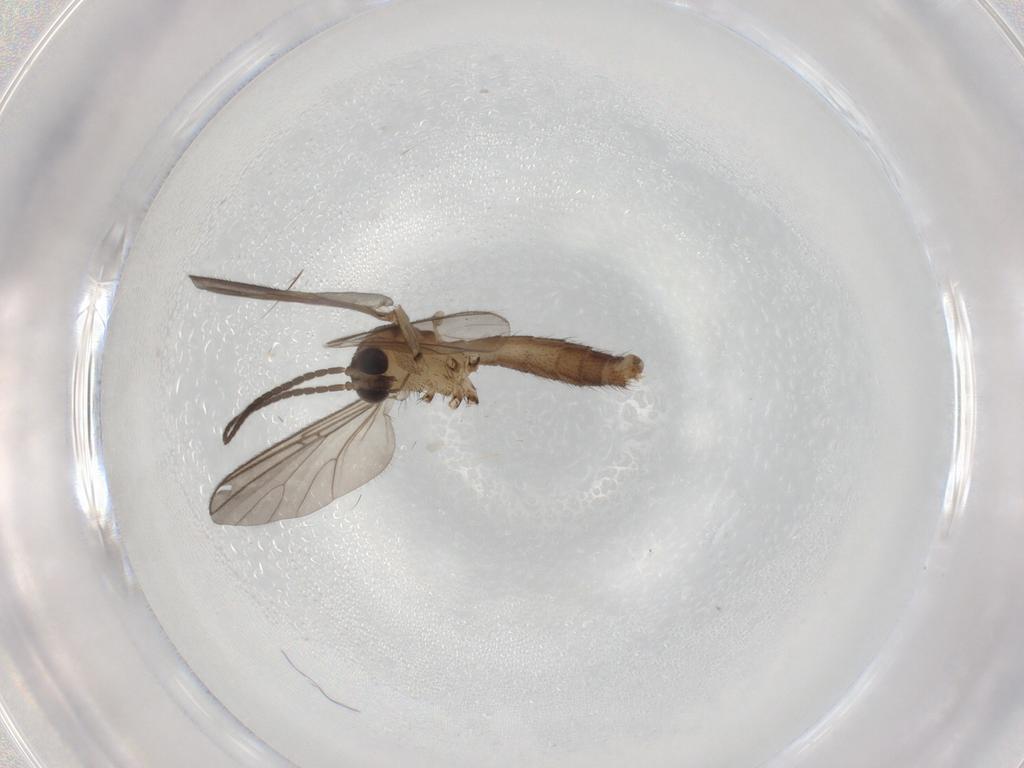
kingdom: Animalia
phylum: Arthropoda
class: Insecta
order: Diptera
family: Mycetophilidae
